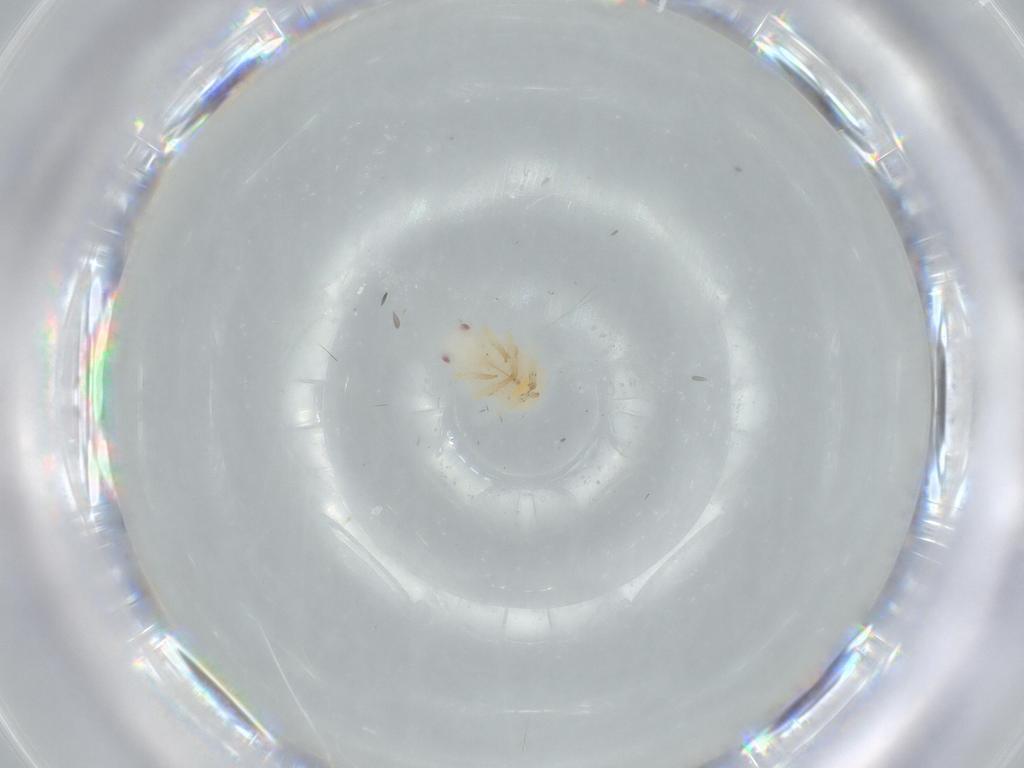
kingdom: Animalia
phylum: Arthropoda
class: Insecta
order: Hemiptera
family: Flatidae
